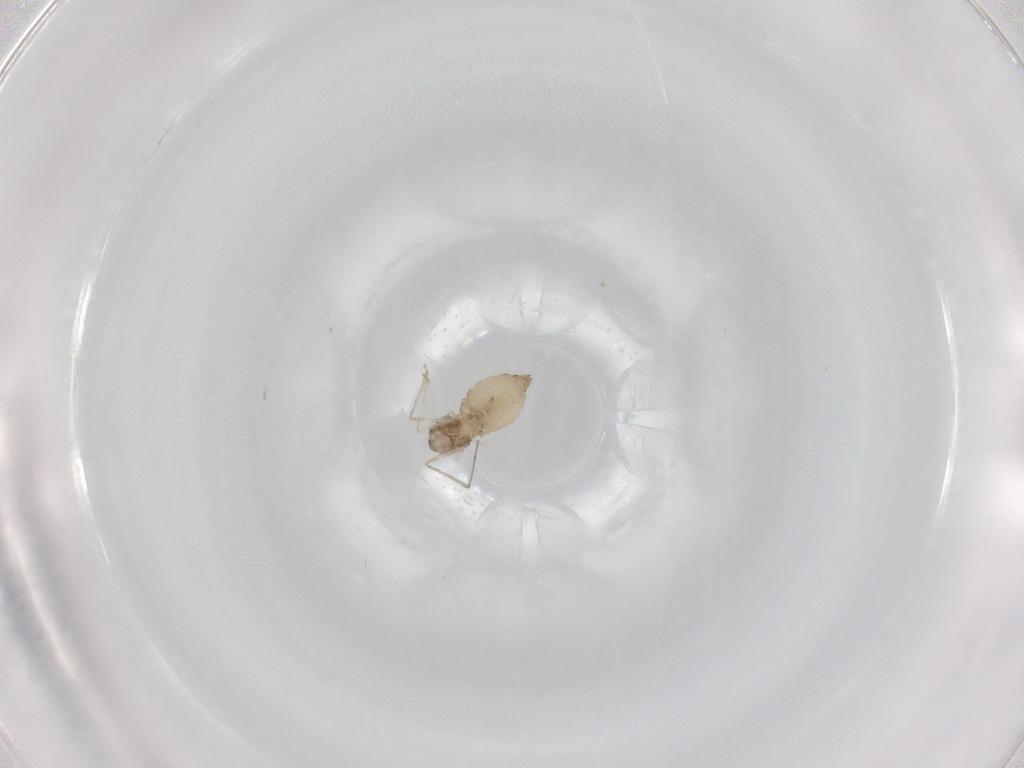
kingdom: Animalia
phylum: Arthropoda
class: Insecta
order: Diptera
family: Cecidomyiidae
